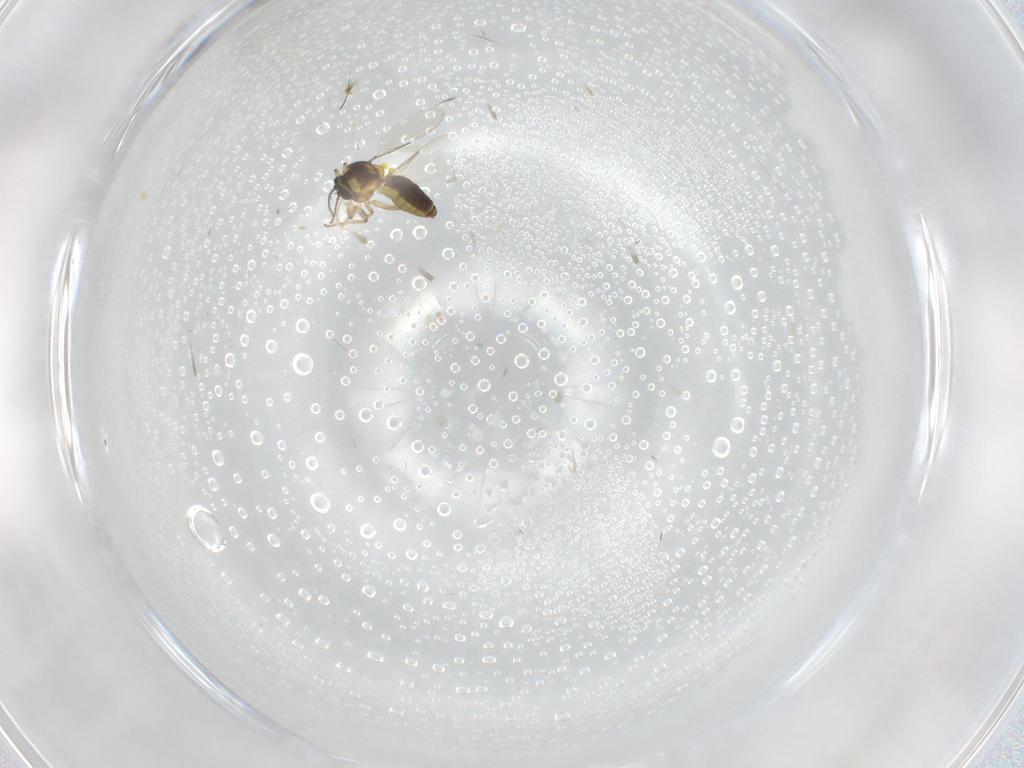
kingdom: Animalia
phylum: Arthropoda
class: Insecta
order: Diptera
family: Ceratopogonidae
